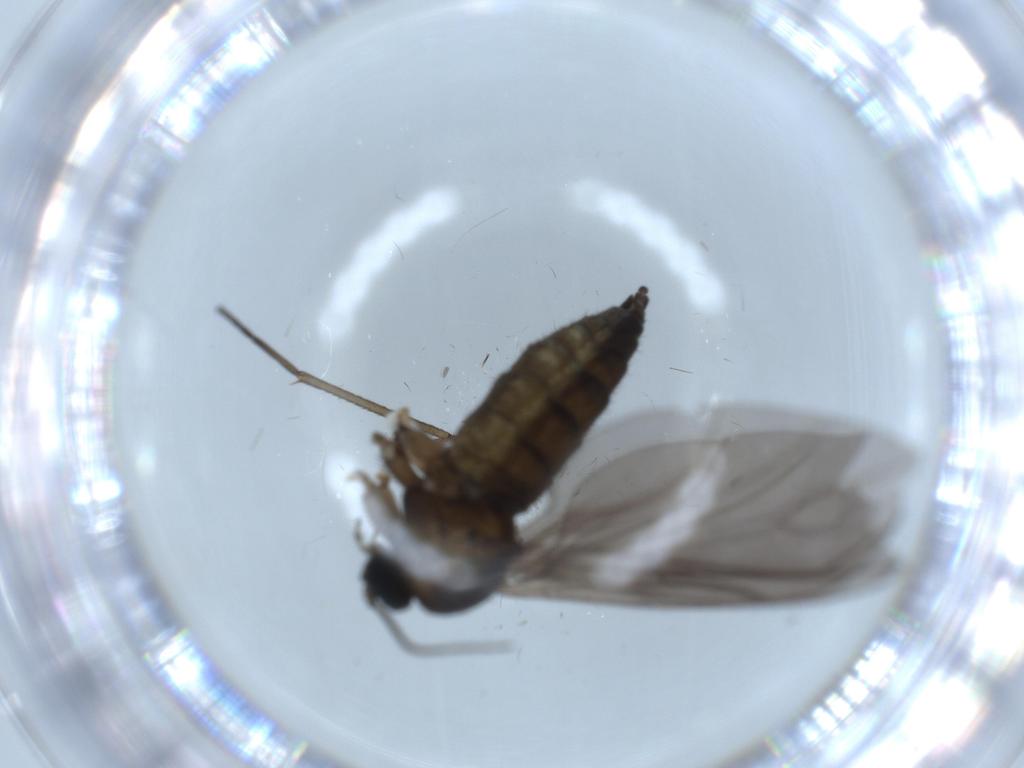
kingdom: Animalia
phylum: Arthropoda
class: Insecta
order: Diptera
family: Sciaridae
